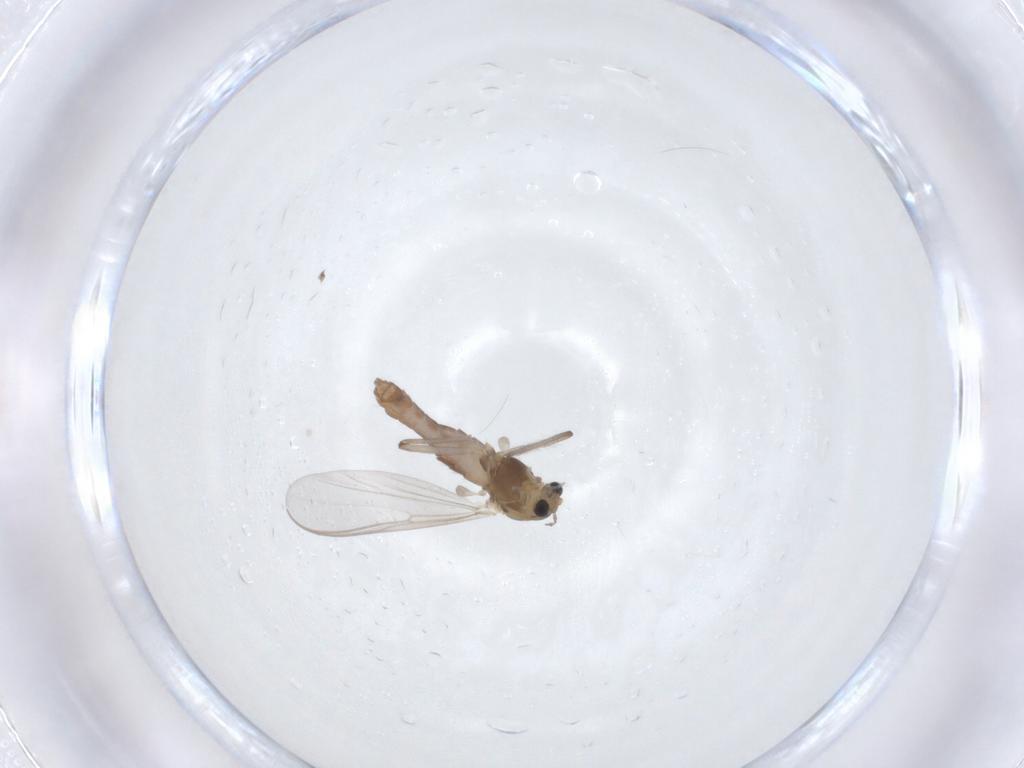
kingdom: Animalia
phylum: Arthropoda
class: Insecta
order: Diptera
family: Chironomidae
